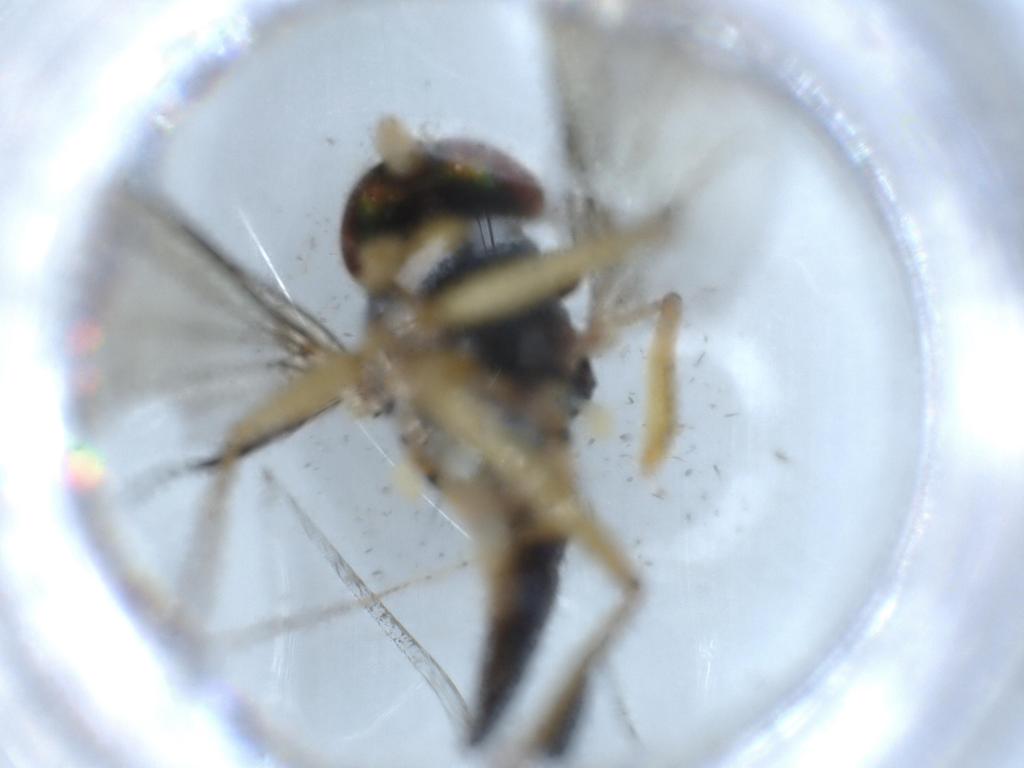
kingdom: Animalia
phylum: Arthropoda
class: Insecta
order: Diptera
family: Dolichopodidae
